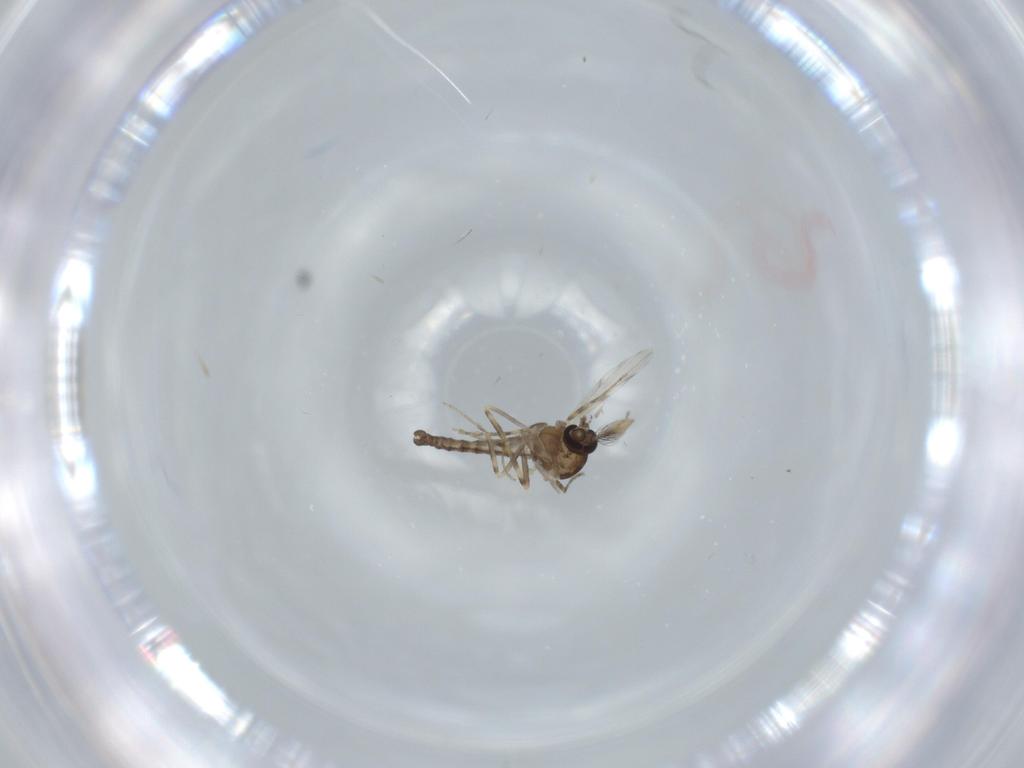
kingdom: Animalia
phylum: Arthropoda
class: Insecta
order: Diptera
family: Ceratopogonidae
